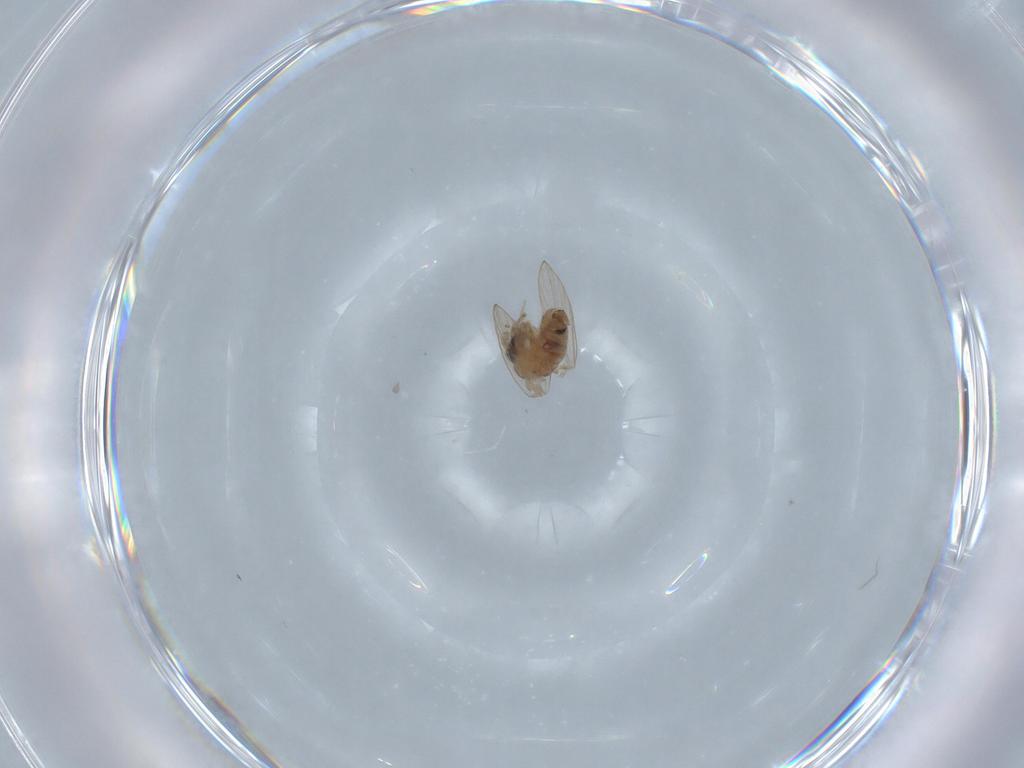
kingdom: Animalia
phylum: Arthropoda
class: Insecta
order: Diptera
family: Psychodidae
